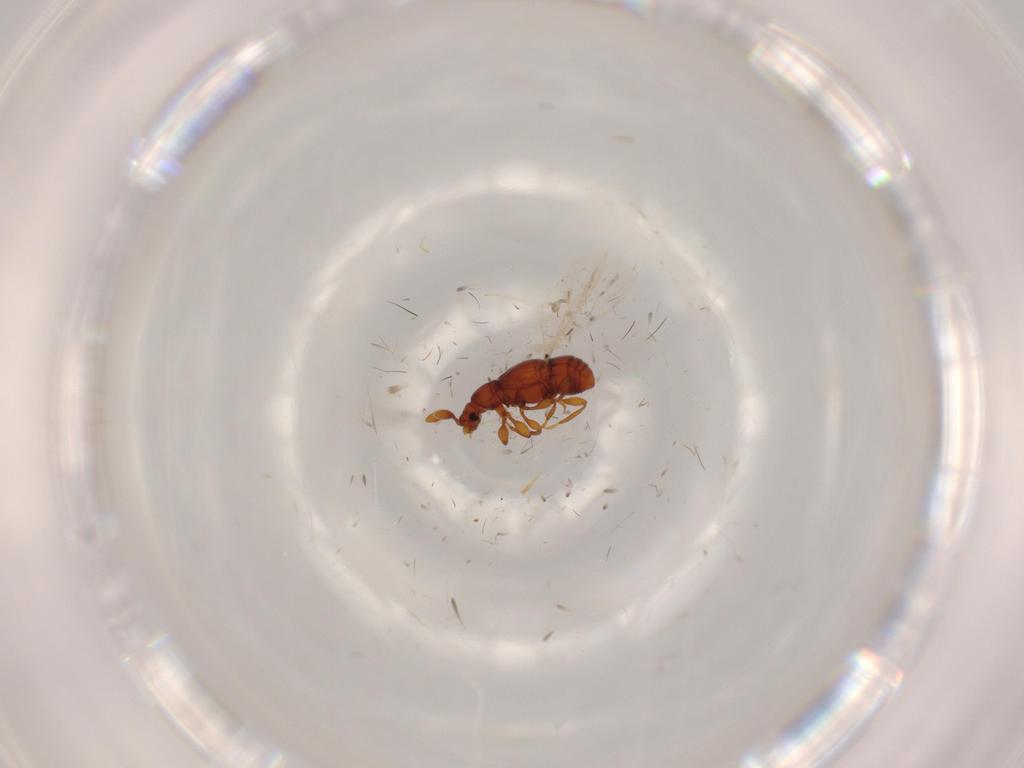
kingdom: Animalia
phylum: Arthropoda
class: Insecta
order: Coleoptera
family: Staphylinidae
